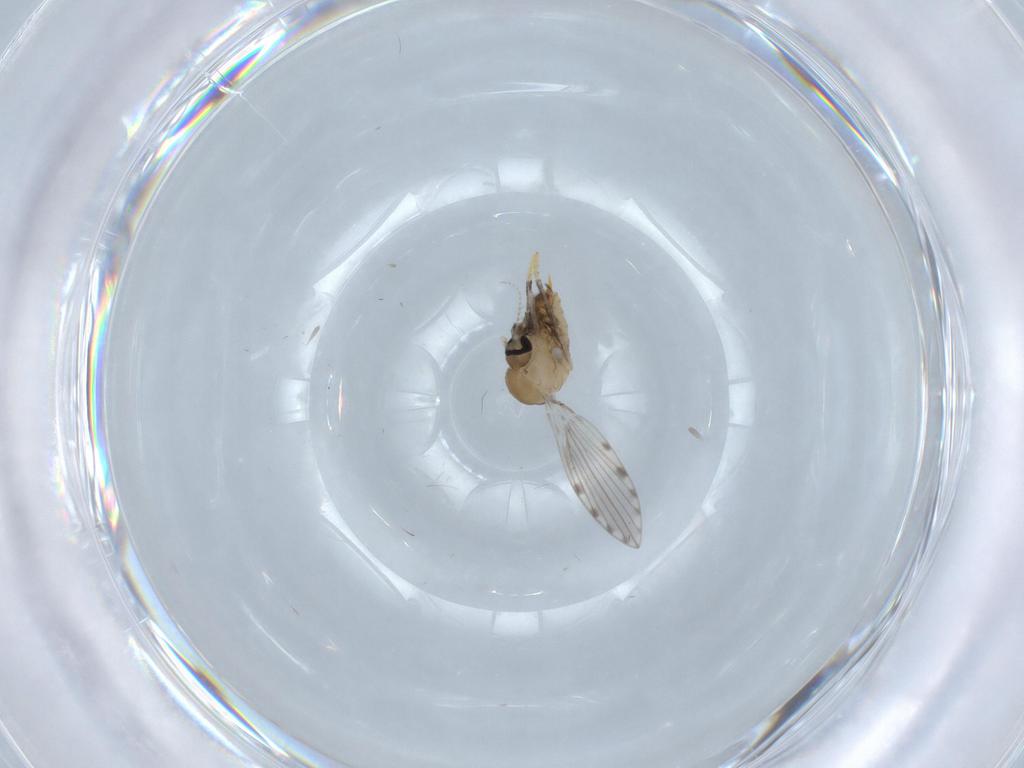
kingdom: Animalia
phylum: Arthropoda
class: Insecta
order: Diptera
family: Psychodidae
